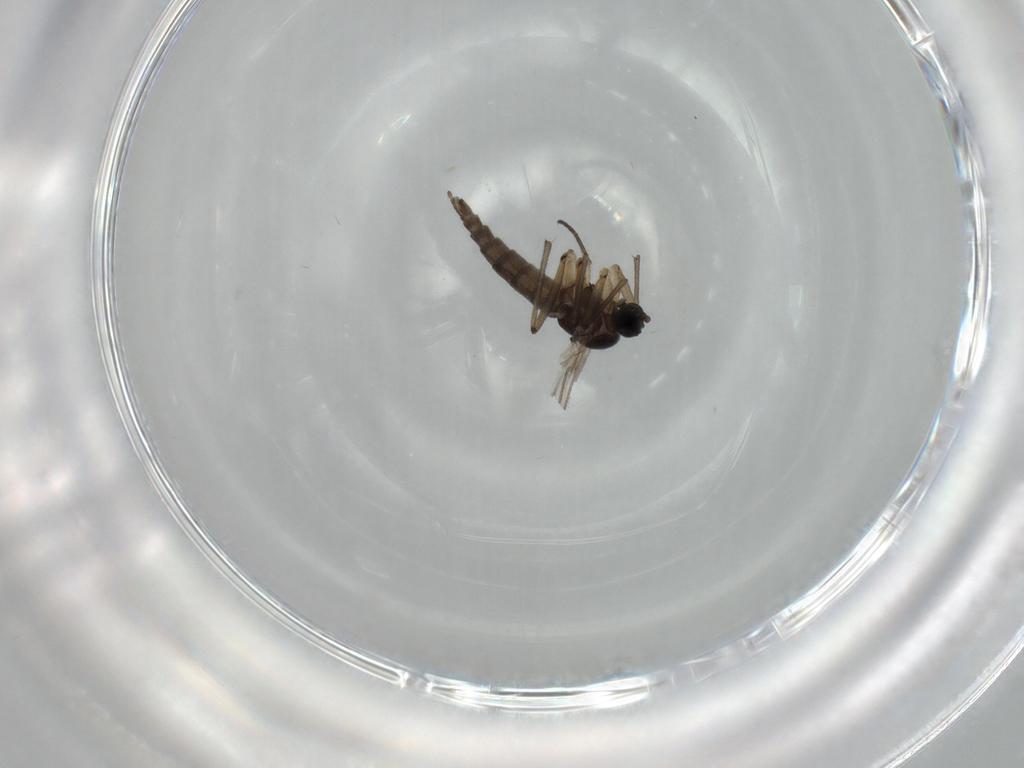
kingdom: Animalia
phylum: Arthropoda
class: Insecta
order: Diptera
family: Sciaridae
